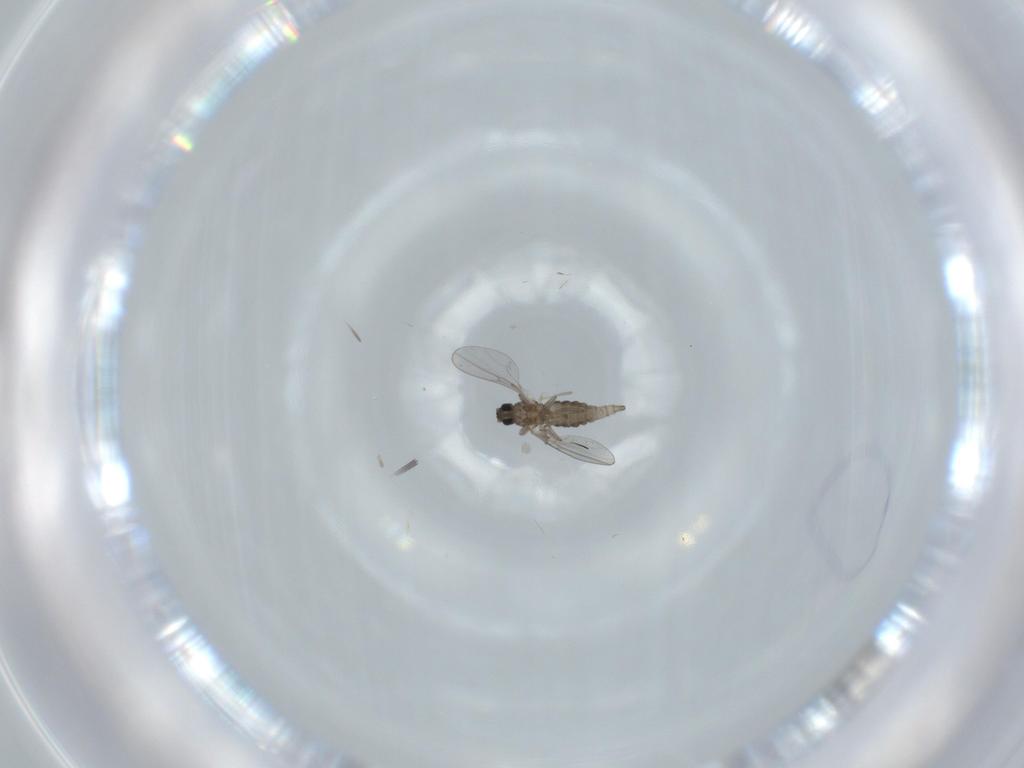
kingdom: Animalia
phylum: Arthropoda
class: Insecta
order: Diptera
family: Cecidomyiidae
